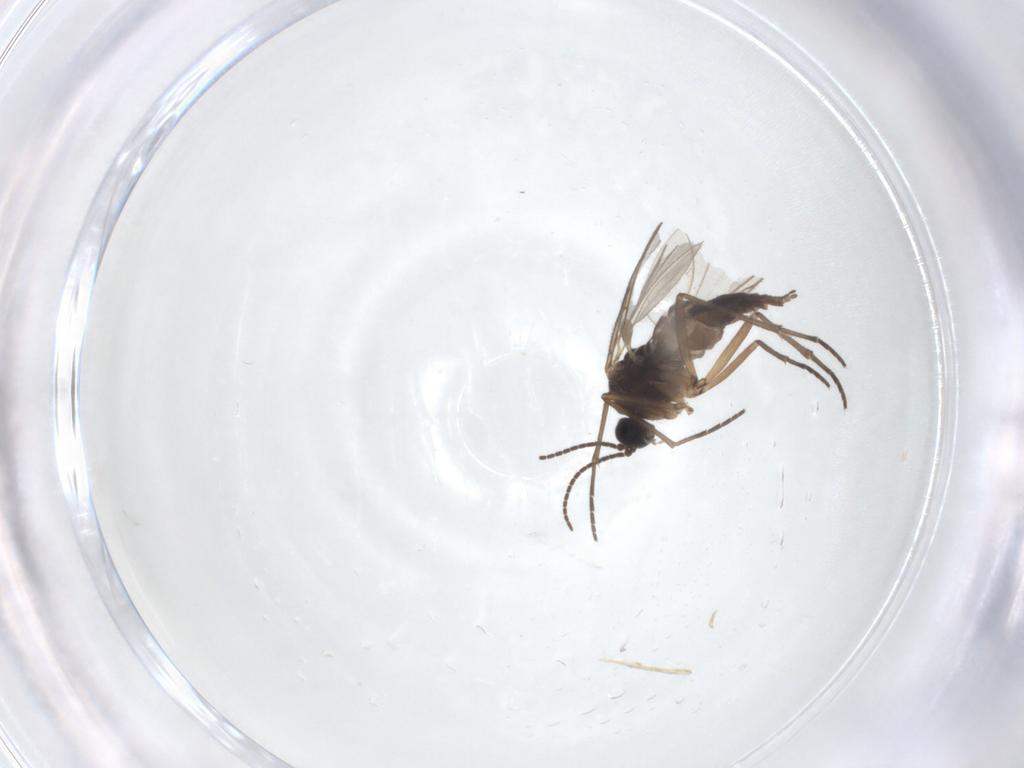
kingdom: Animalia
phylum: Arthropoda
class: Insecta
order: Diptera
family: Sciaridae
